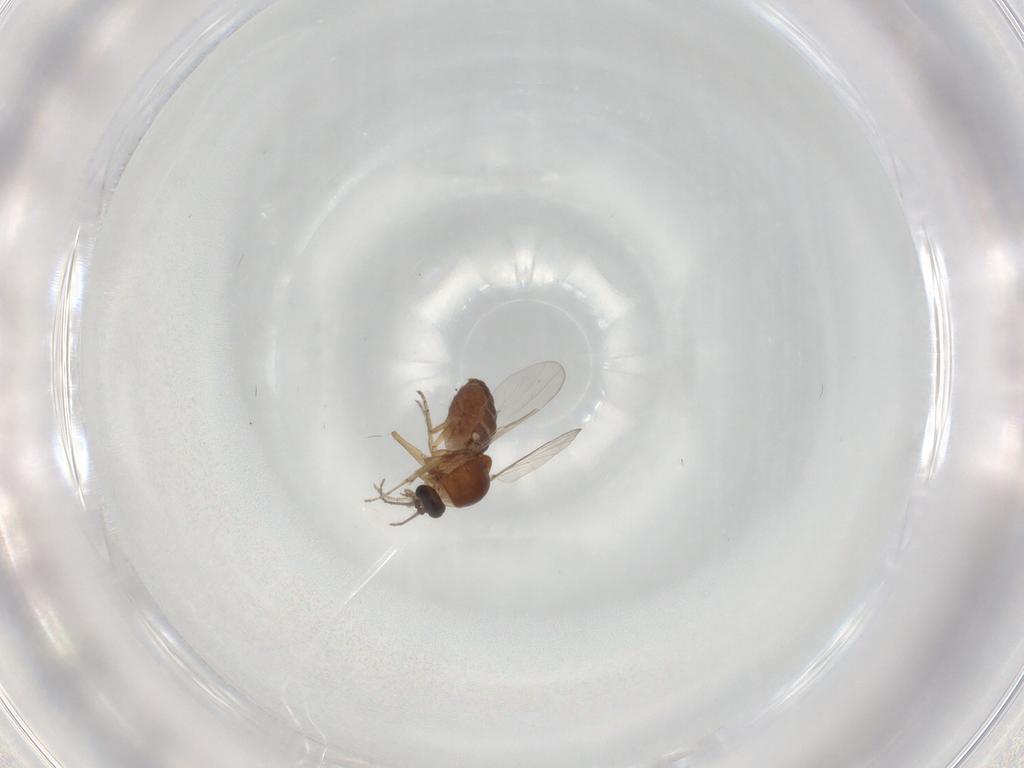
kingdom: Animalia
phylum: Arthropoda
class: Insecta
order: Diptera
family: Ceratopogonidae
